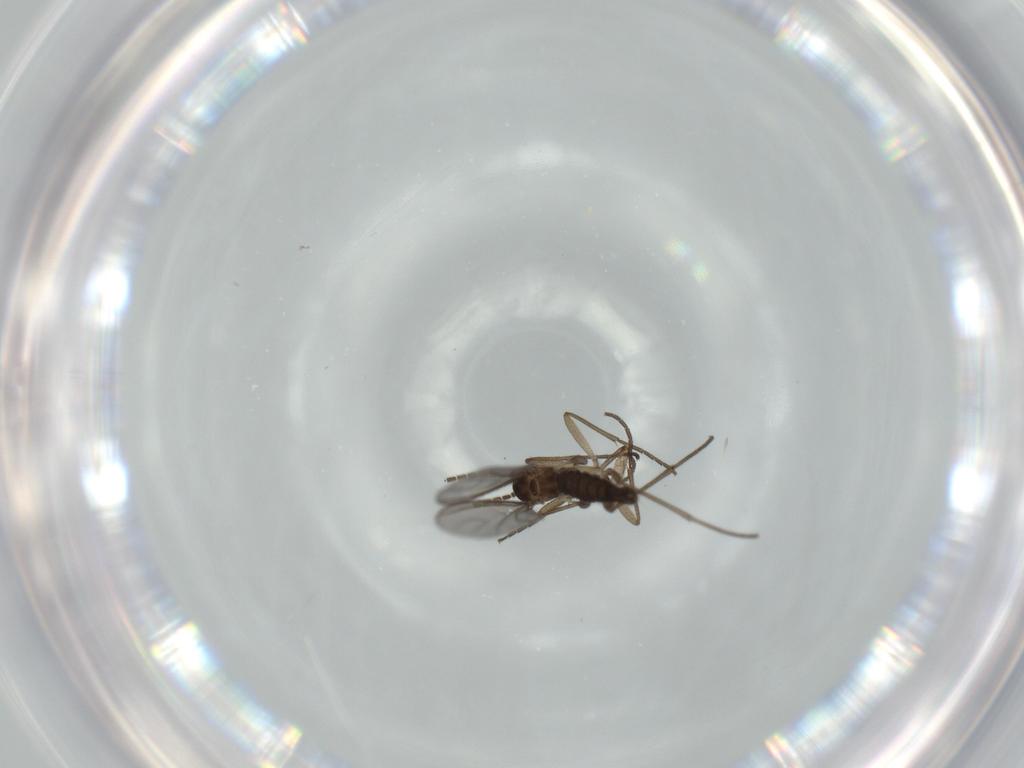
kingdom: Animalia
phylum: Arthropoda
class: Insecta
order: Diptera
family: Sciaridae
